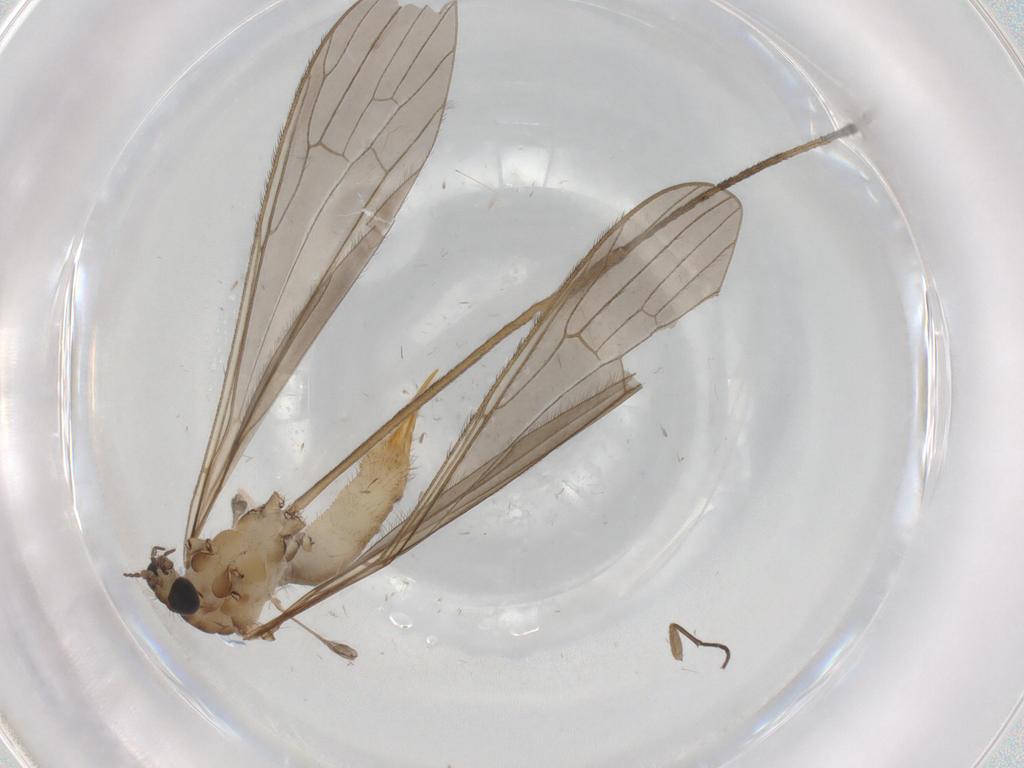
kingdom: Animalia
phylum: Arthropoda
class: Insecta
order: Diptera
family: Phoridae
